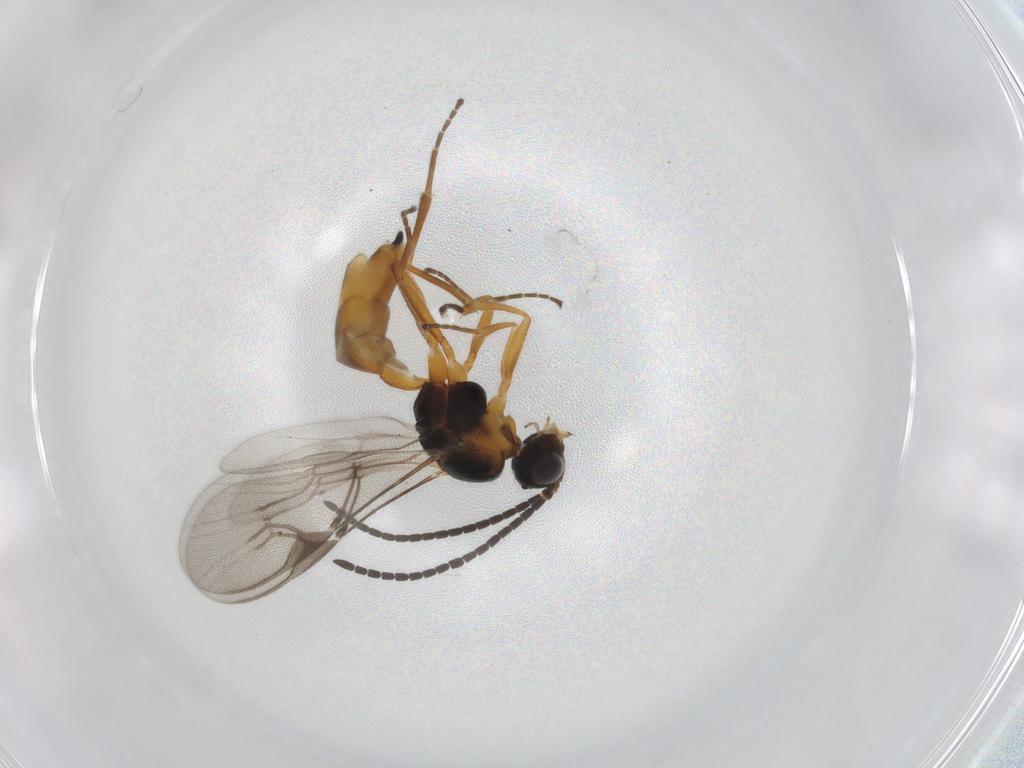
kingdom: Animalia
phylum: Arthropoda
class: Insecta
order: Hymenoptera
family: Braconidae
